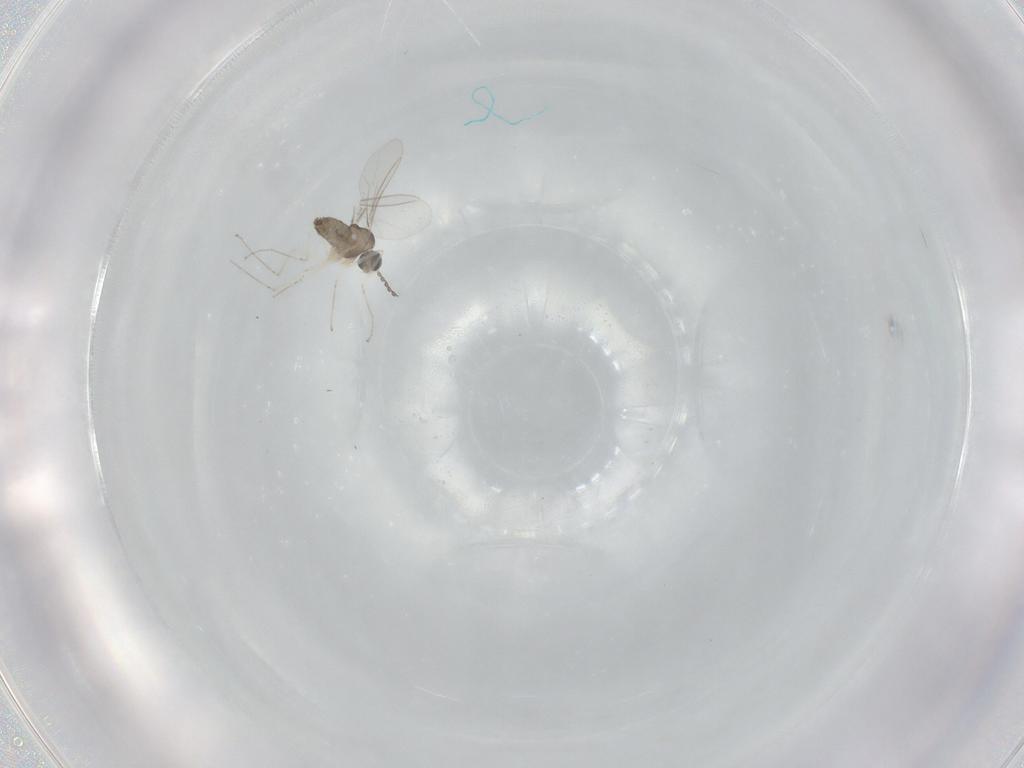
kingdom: Animalia
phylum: Arthropoda
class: Insecta
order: Diptera
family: Cecidomyiidae
